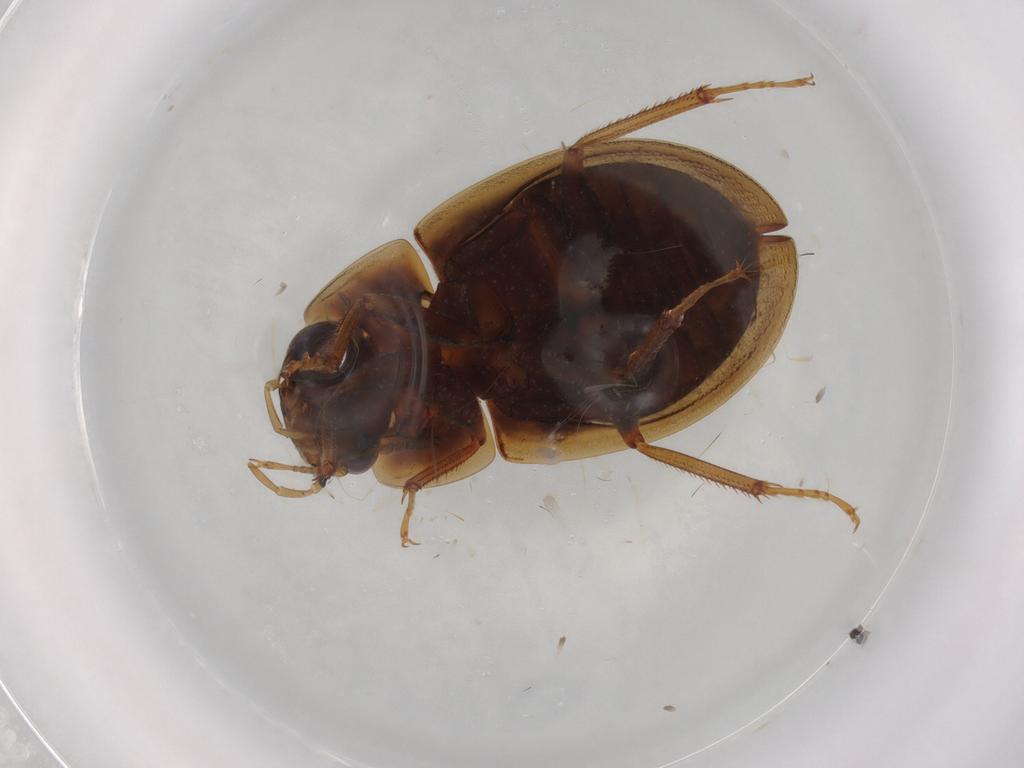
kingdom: Animalia
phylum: Arthropoda
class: Insecta
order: Coleoptera
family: Hydrophilidae
